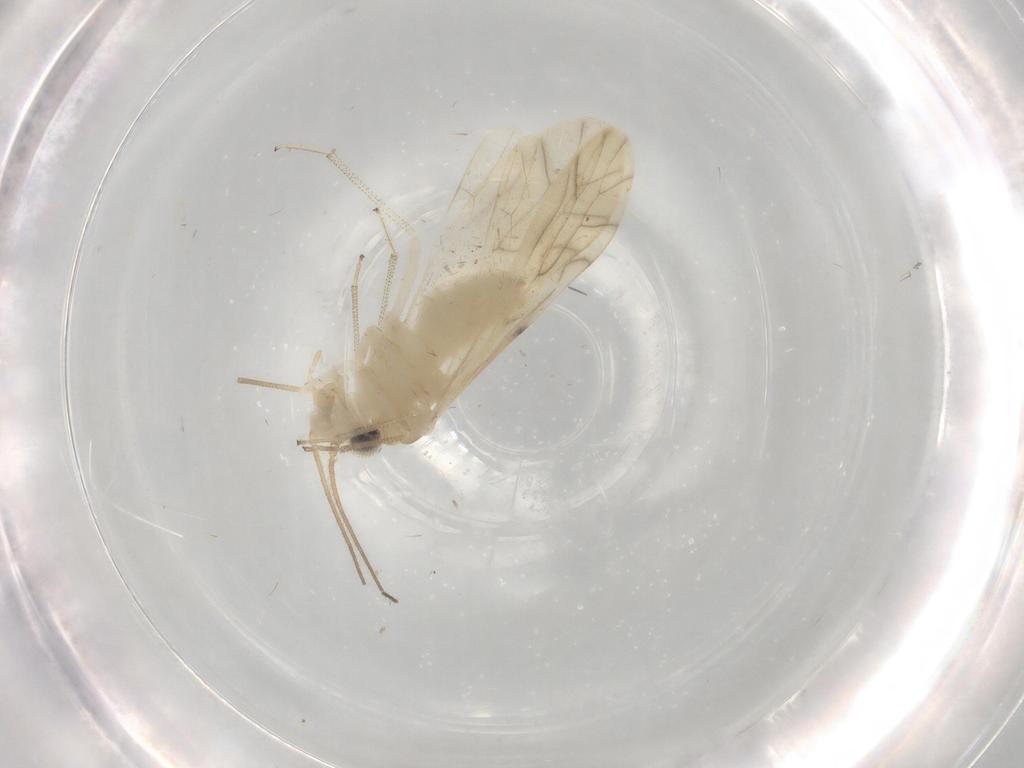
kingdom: Animalia
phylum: Arthropoda
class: Insecta
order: Psocodea
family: Caeciliusidae
